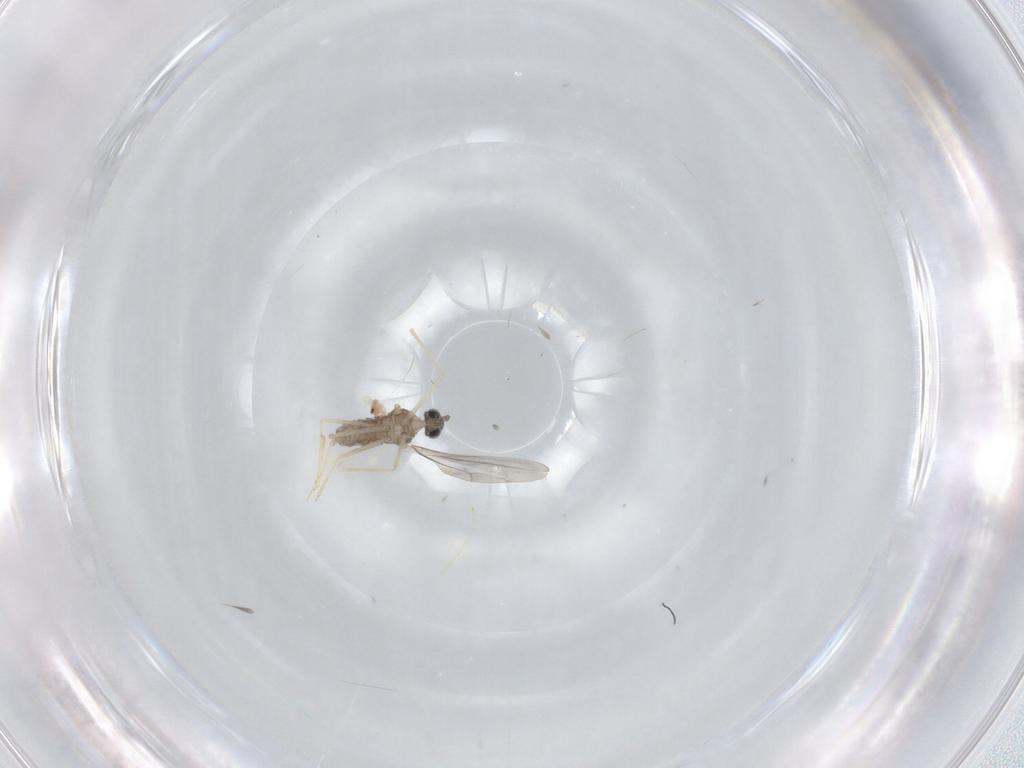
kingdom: Animalia
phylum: Arthropoda
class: Insecta
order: Diptera
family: Cecidomyiidae
